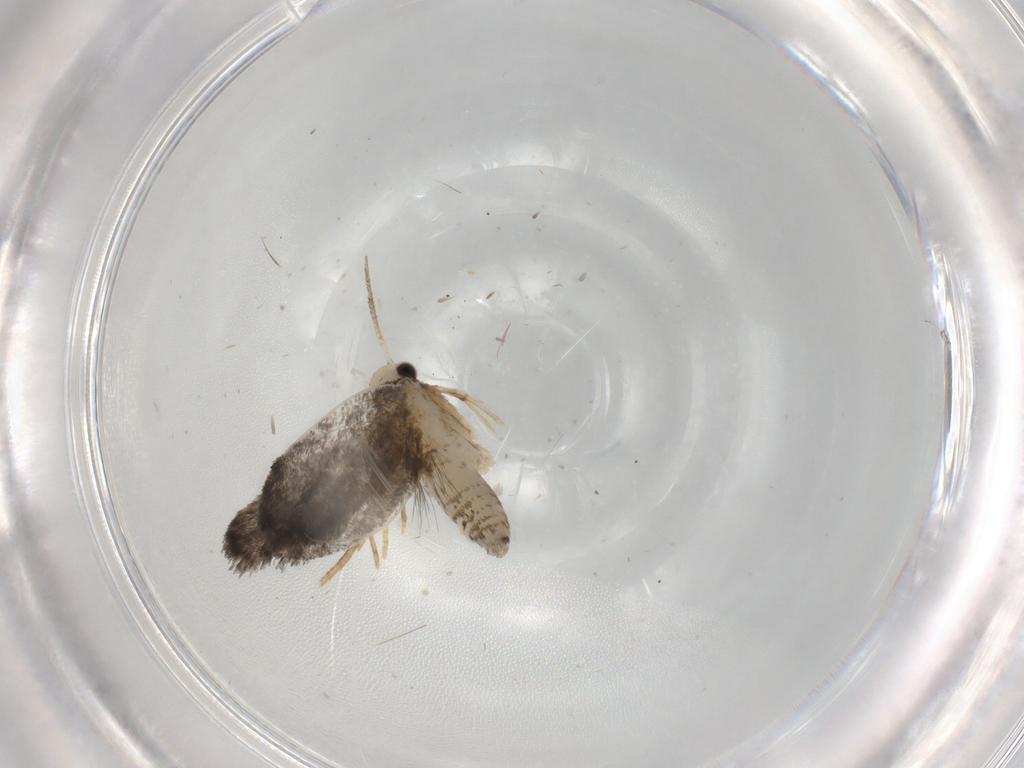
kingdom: Animalia
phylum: Arthropoda
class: Insecta
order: Lepidoptera
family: Psychidae
